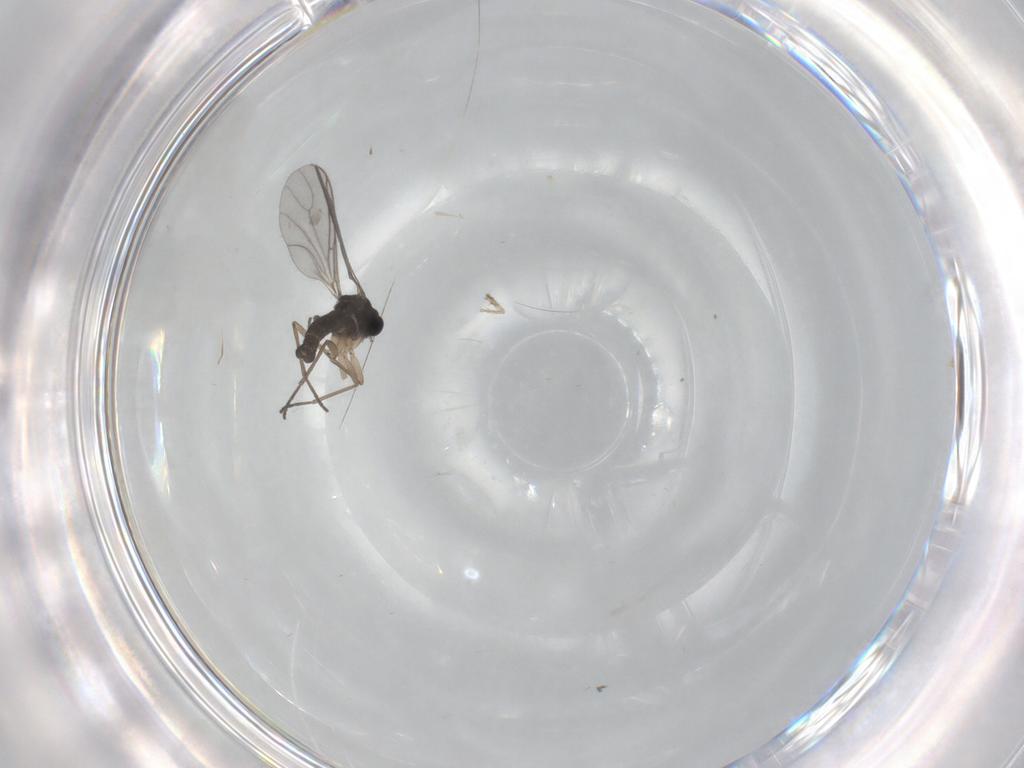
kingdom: Animalia
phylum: Arthropoda
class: Insecta
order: Diptera
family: Sciaridae
